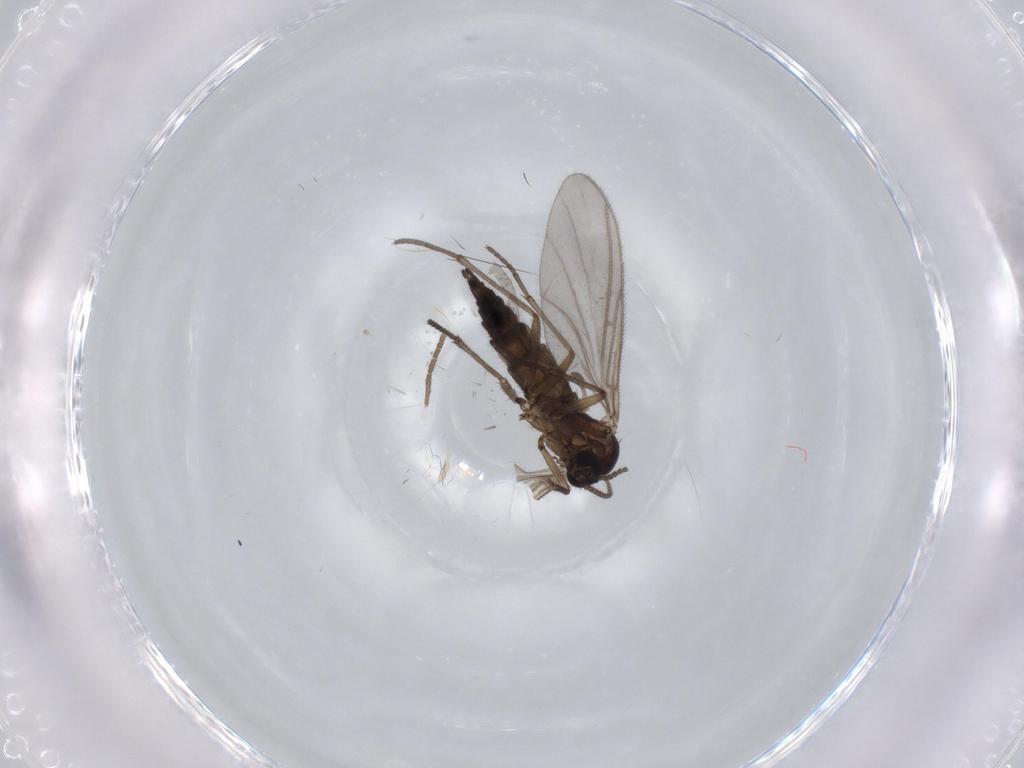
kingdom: Animalia
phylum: Arthropoda
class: Insecta
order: Diptera
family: Sciaridae
